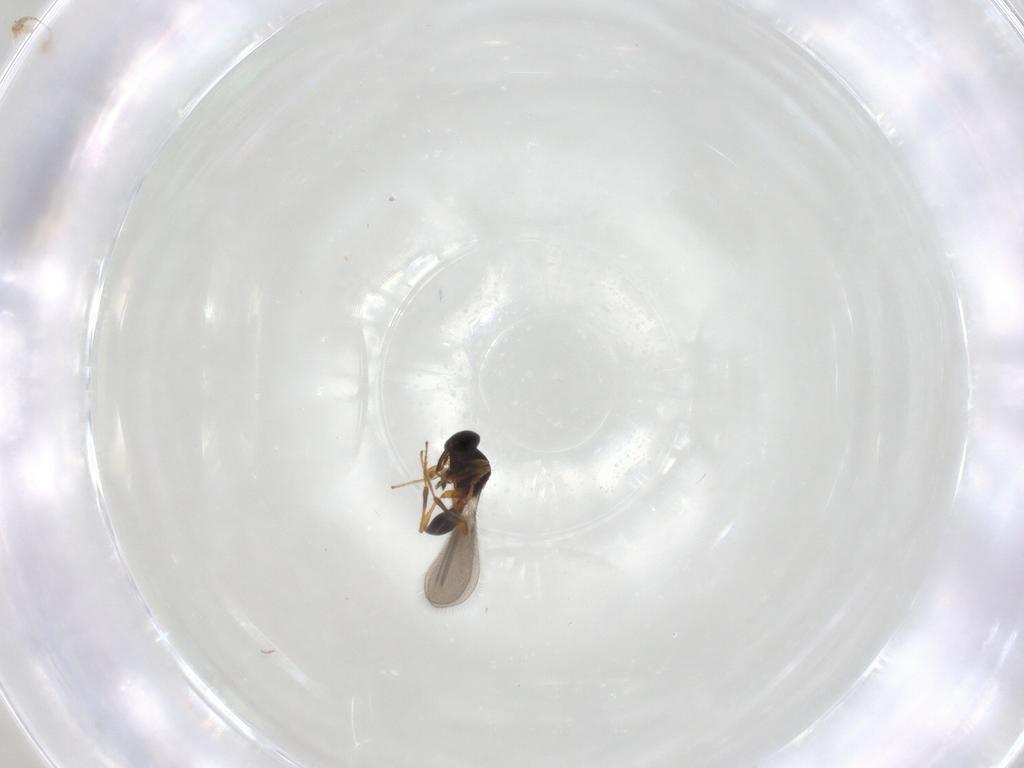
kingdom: Animalia
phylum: Arthropoda
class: Insecta
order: Hymenoptera
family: Platygastridae
